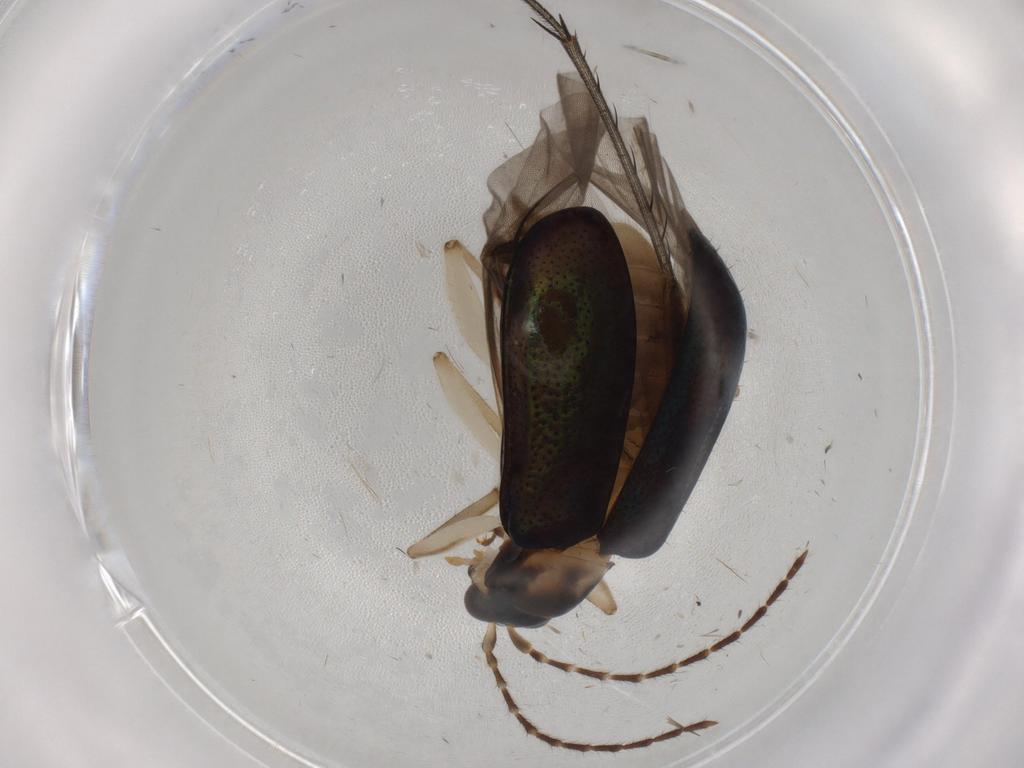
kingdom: Animalia
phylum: Arthropoda
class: Insecta
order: Coleoptera
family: Chrysomelidae
